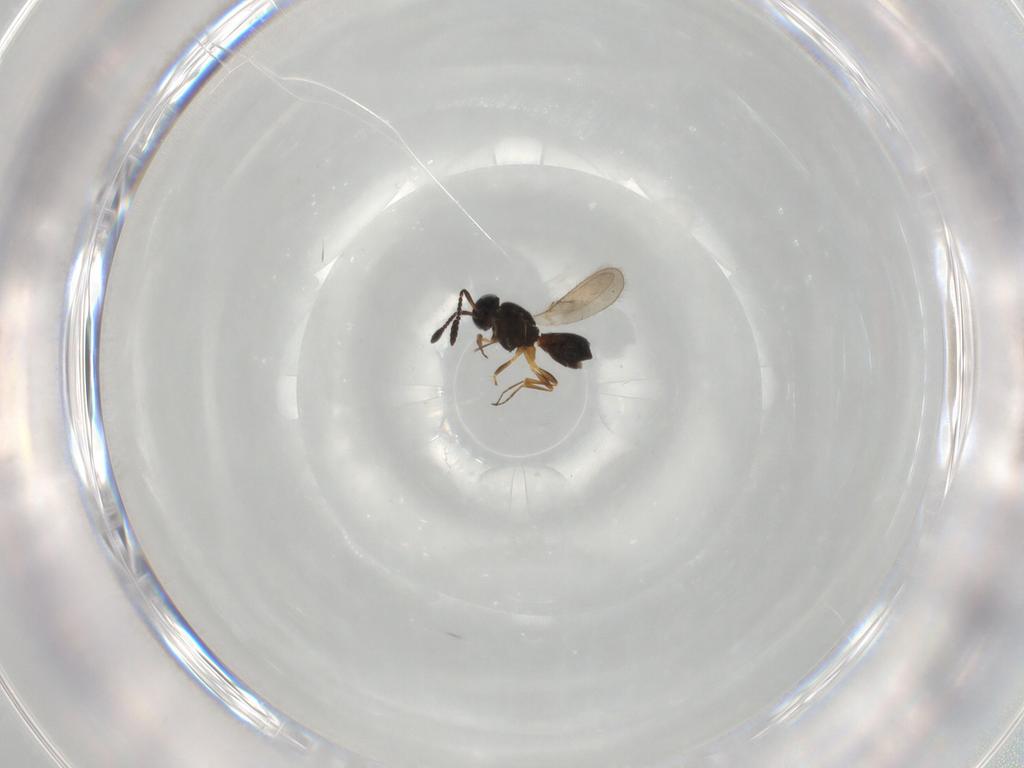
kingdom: Animalia
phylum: Arthropoda
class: Insecta
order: Hymenoptera
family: Scelionidae
